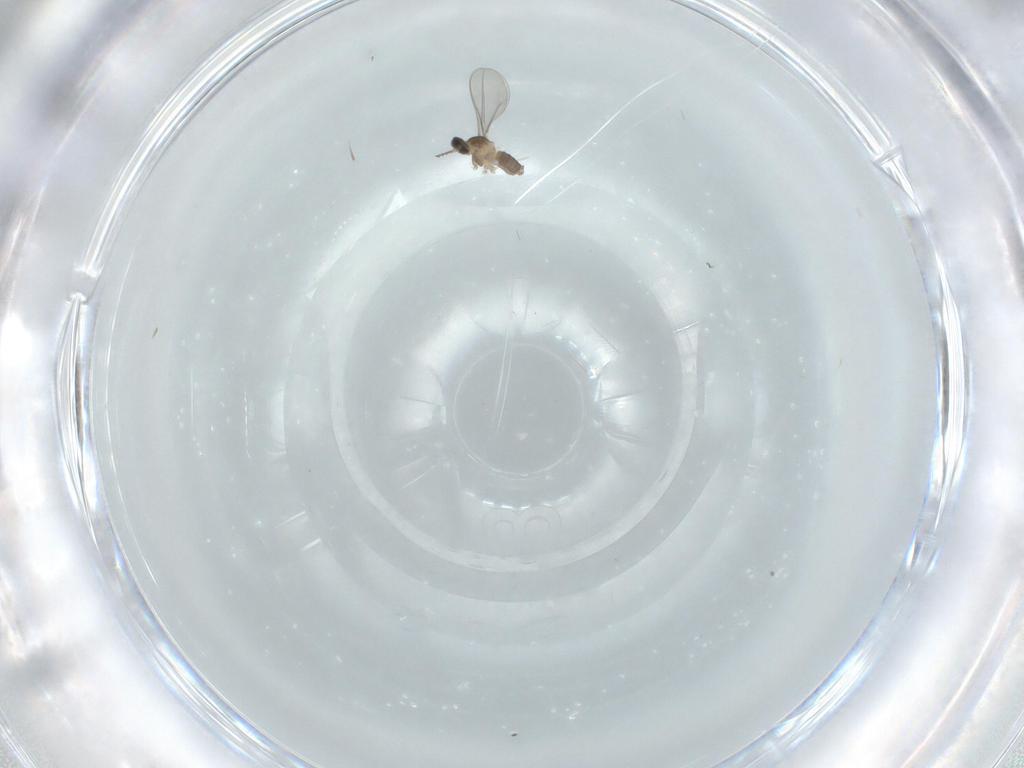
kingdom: Animalia
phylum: Arthropoda
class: Insecta
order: Diptera
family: Cecidomyiidae
